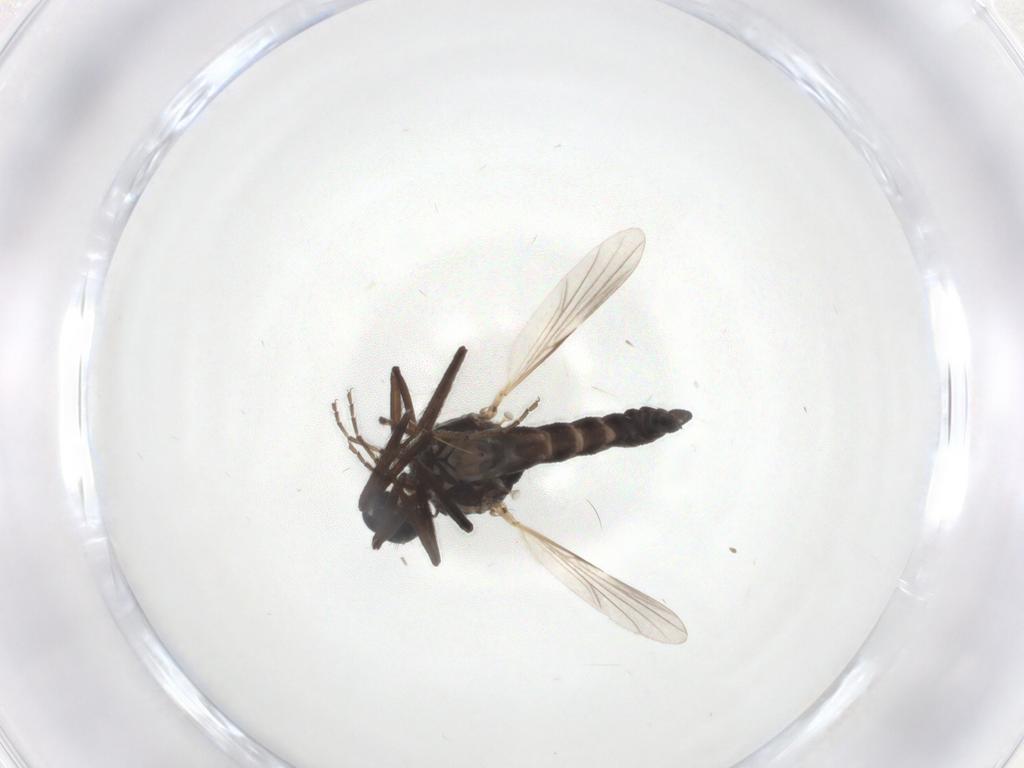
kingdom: Animalia
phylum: Arthropoda
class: Insecta
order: Diptera
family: Ceratopogonidae
